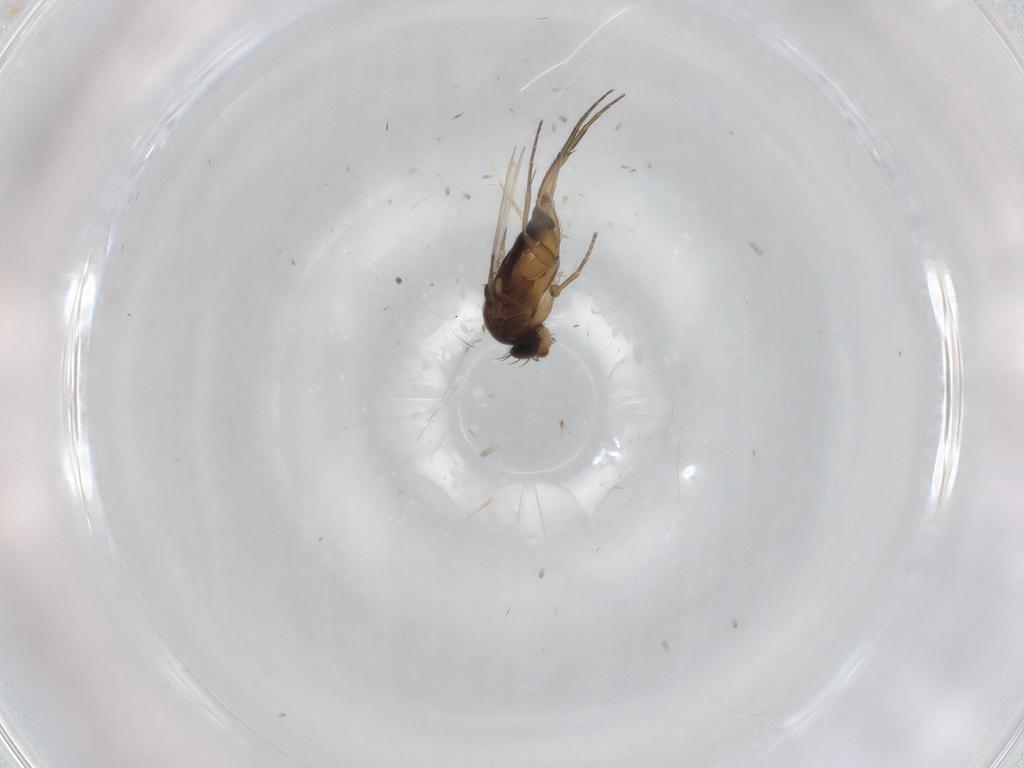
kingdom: Animalia
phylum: Arthropoda
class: Insecta
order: Diptera
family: Phoridae
